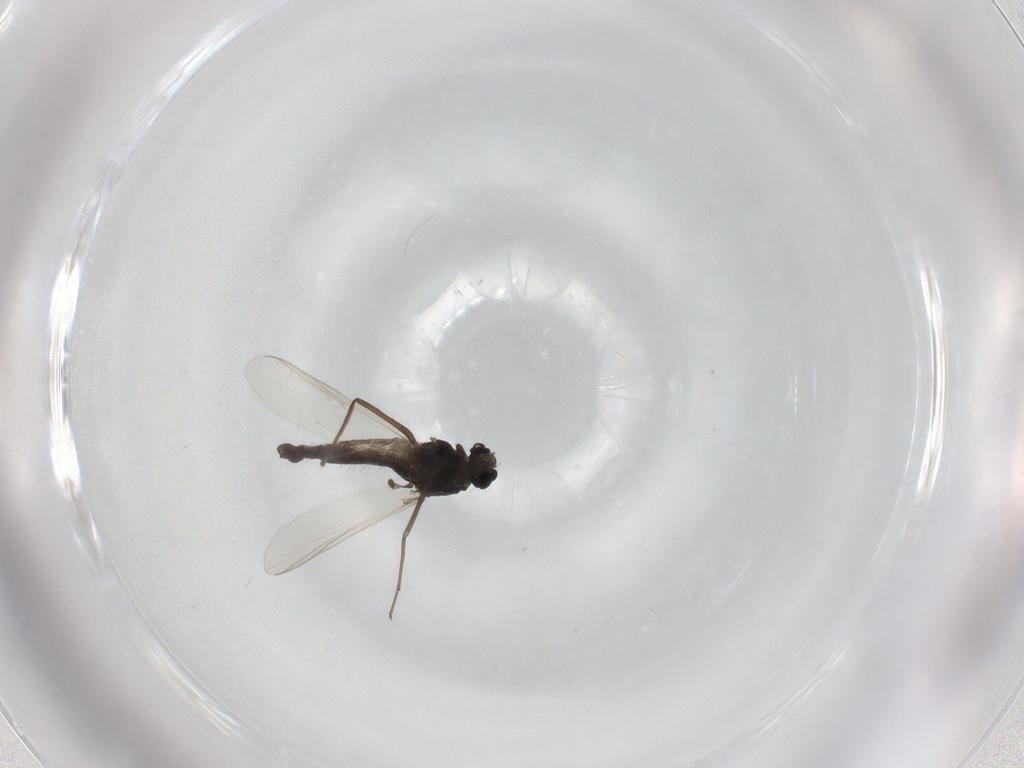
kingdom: Animalia
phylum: Arthropoda
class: Insecta
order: Diptera
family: Chironomidae
